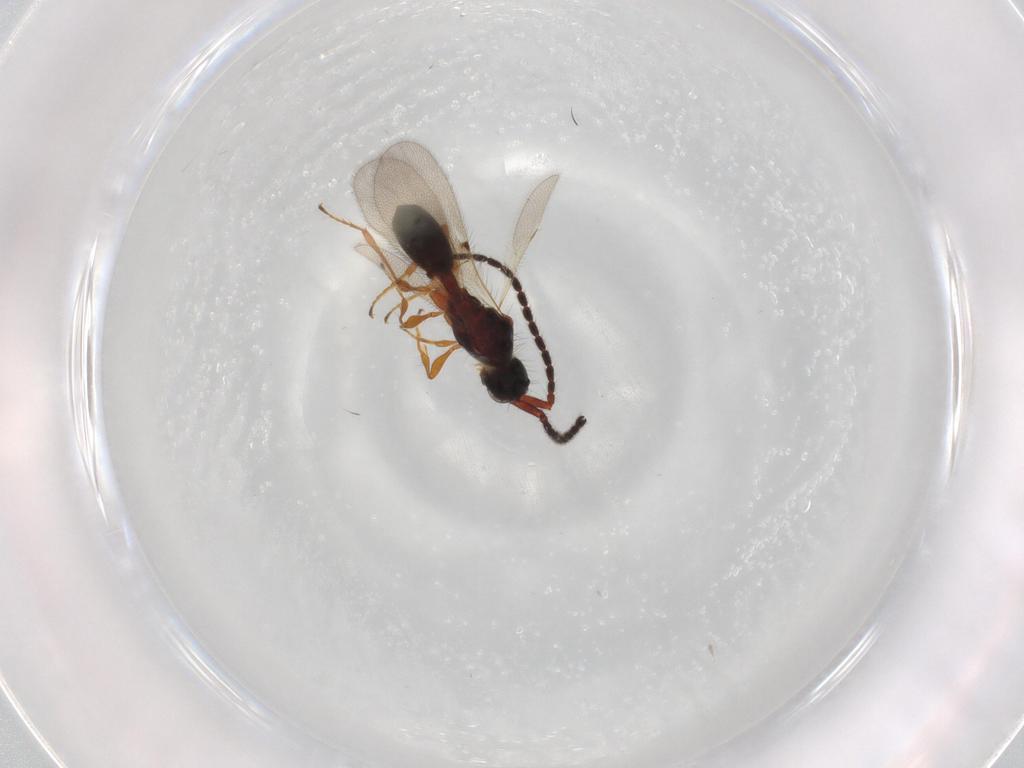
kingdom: Animalia
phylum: Arthropoda
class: Insecta
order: Hymenoptera
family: Diapriidae
